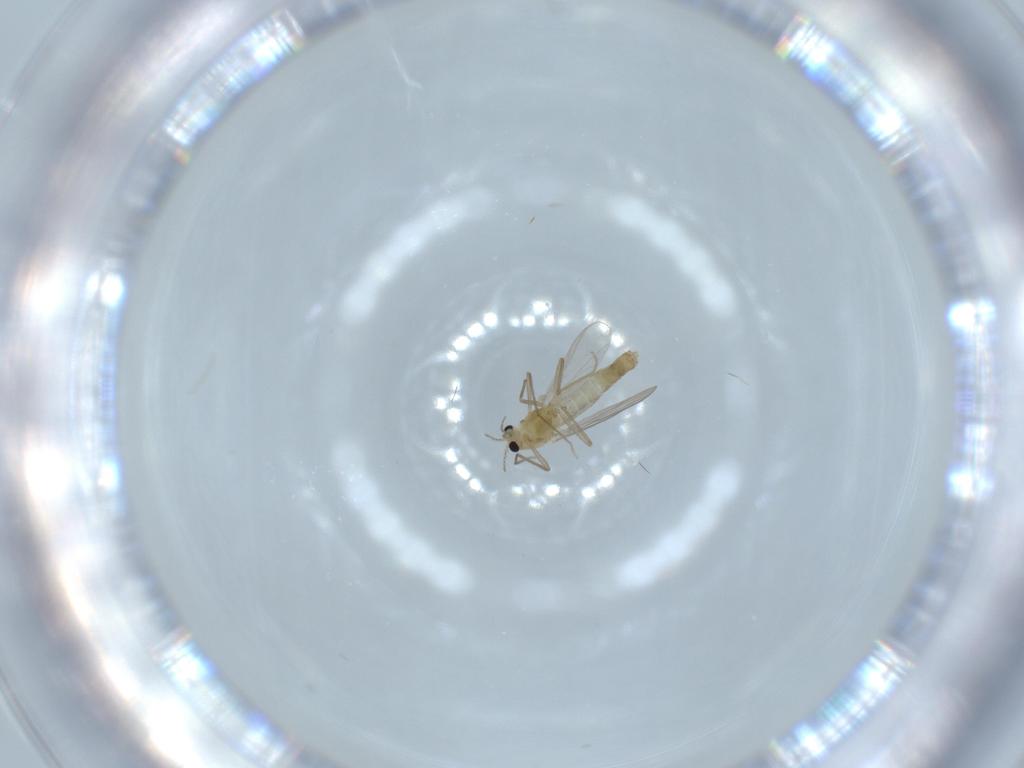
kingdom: Animalia
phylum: Arthropoda
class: Insecta
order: Diptera
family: Chironomidae
